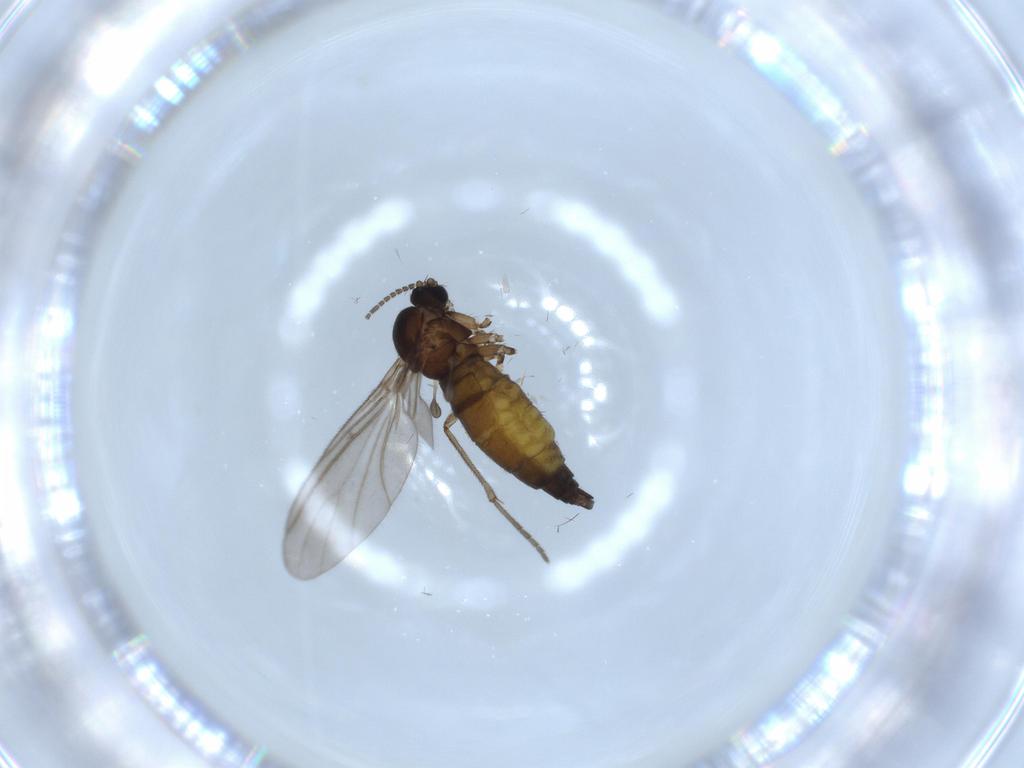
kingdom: Animalia
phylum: Arthropoda
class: Insecta
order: Diptera
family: Sciaridae
